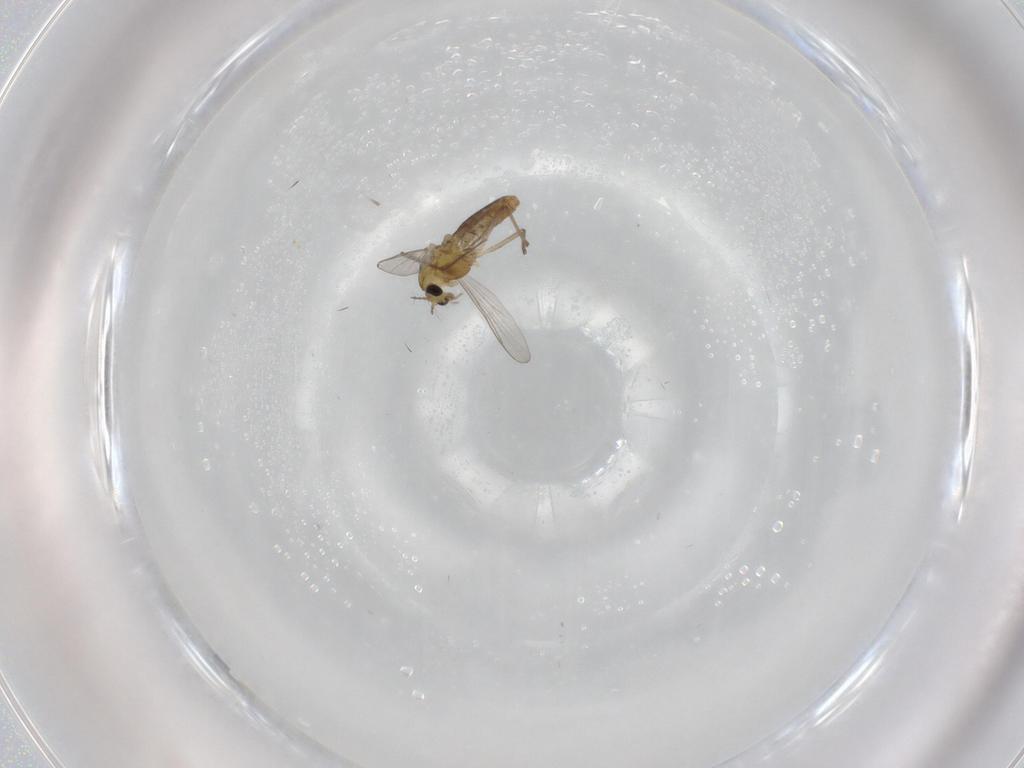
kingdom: Animalia
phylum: Arthropoda
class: Insecta
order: Diptera
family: Chironomidae
